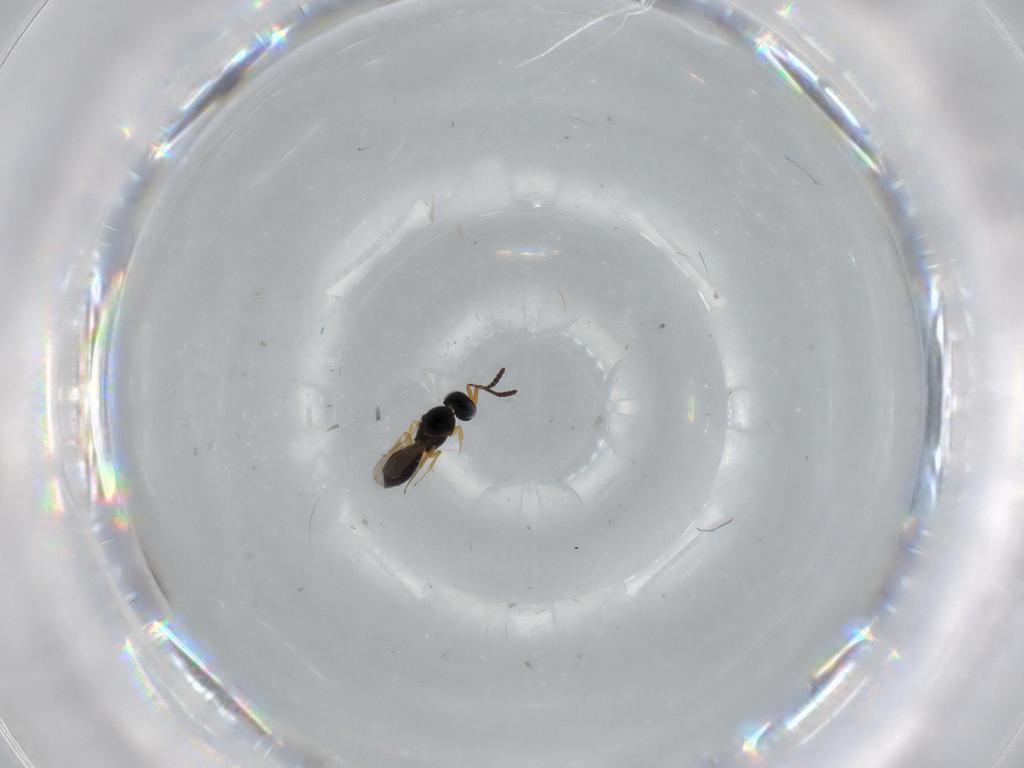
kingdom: Animalia
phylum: Arthropoda
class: Insecta
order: Hymenoptera
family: Scelionidae
